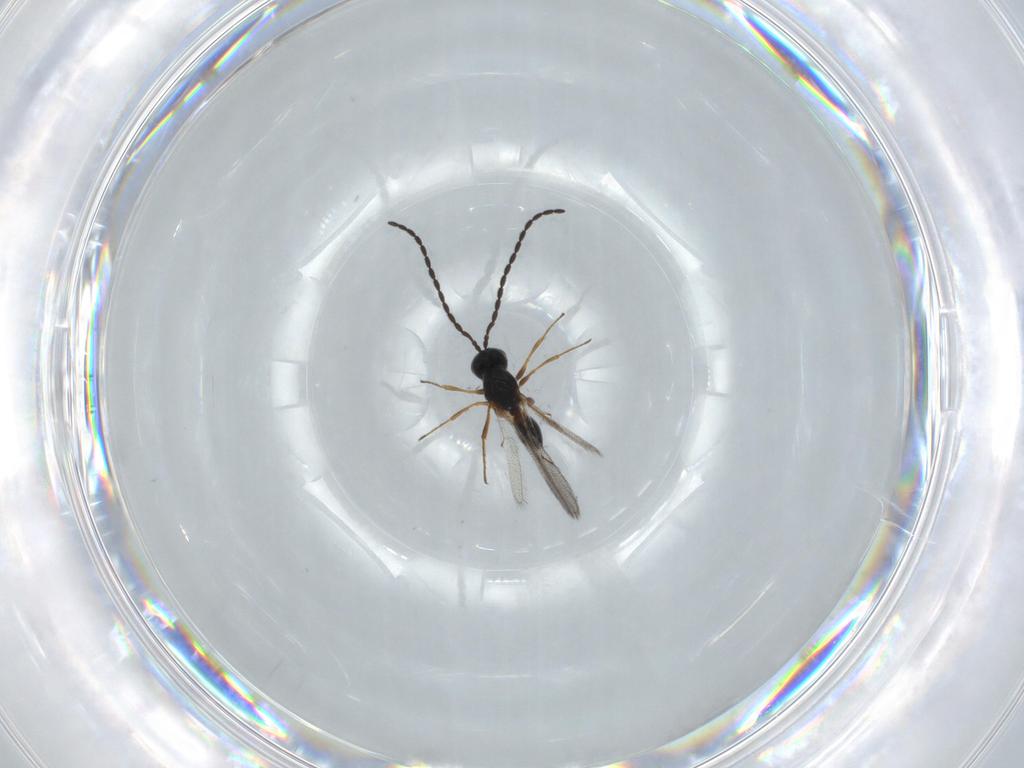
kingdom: Animalia
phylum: Arthropoda
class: Insecta
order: Hymenoptera
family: Figitidae
